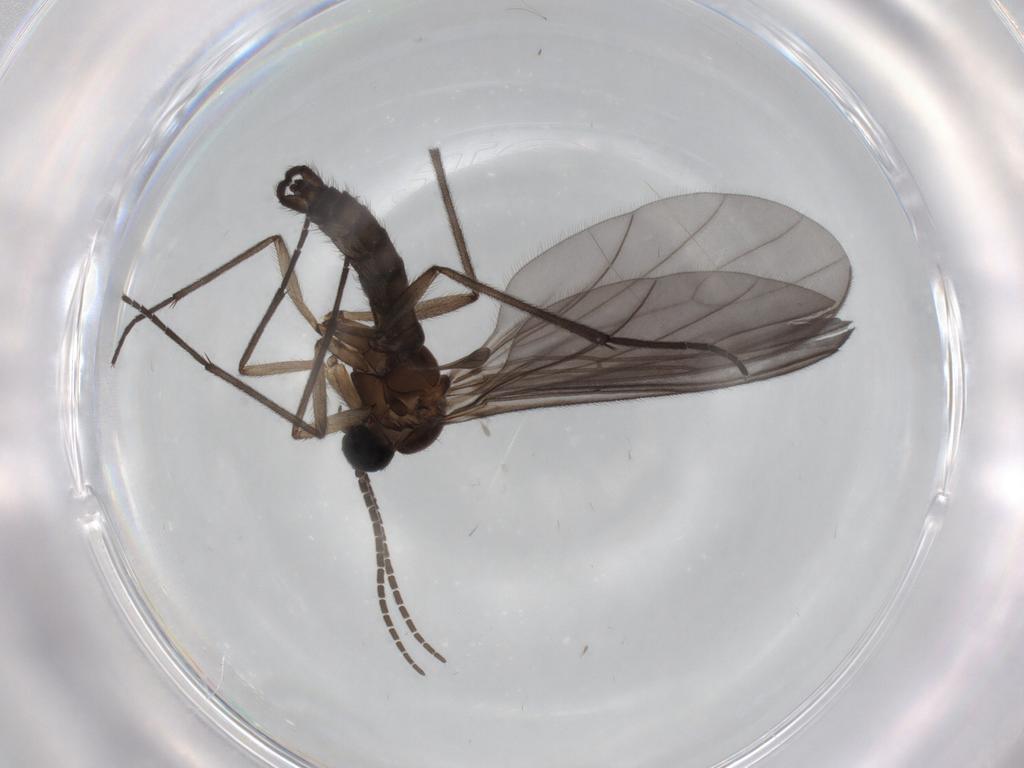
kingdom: Animalia
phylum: Arthropoda
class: Insecta
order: Diptera
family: Sciaridae
